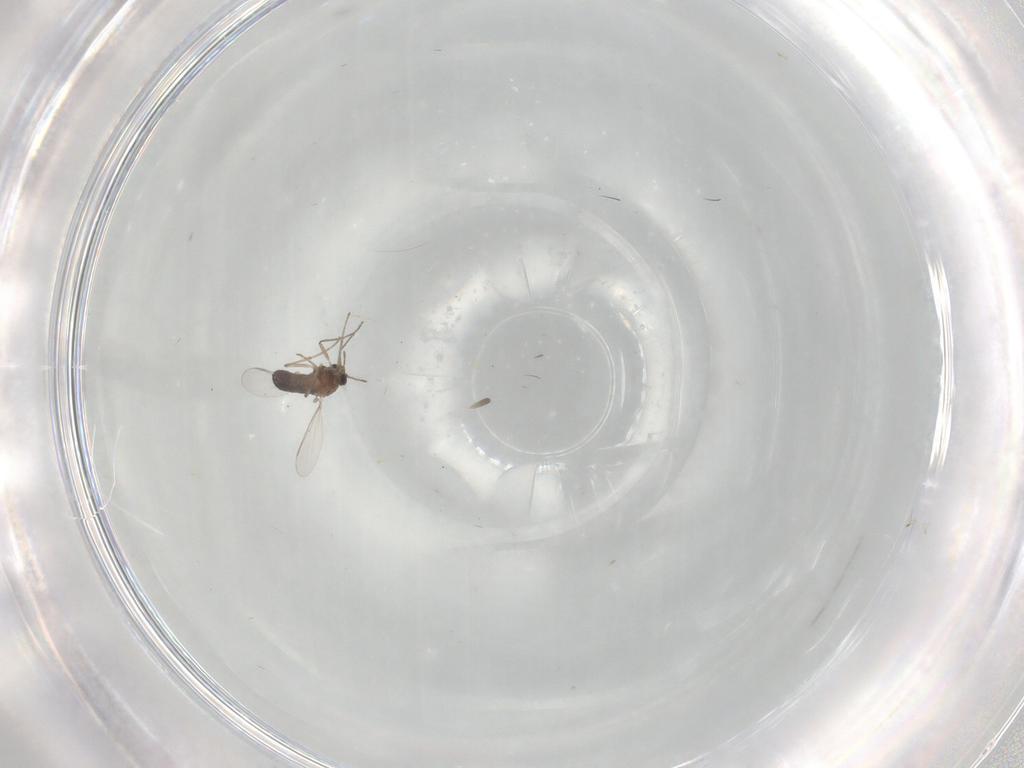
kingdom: Animalia
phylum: Arthropoda
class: Insecta
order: Diptera
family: Chironomidae
